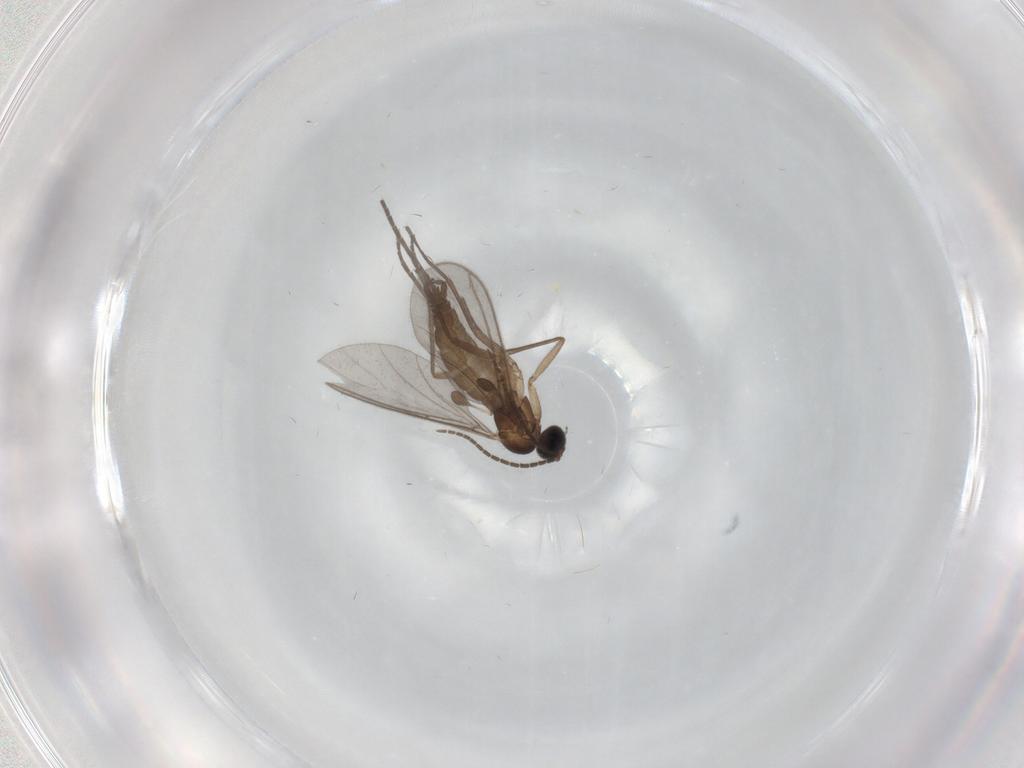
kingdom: Animalia
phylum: Arthropoda
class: Insecta
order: Diptera
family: Sciaridae
